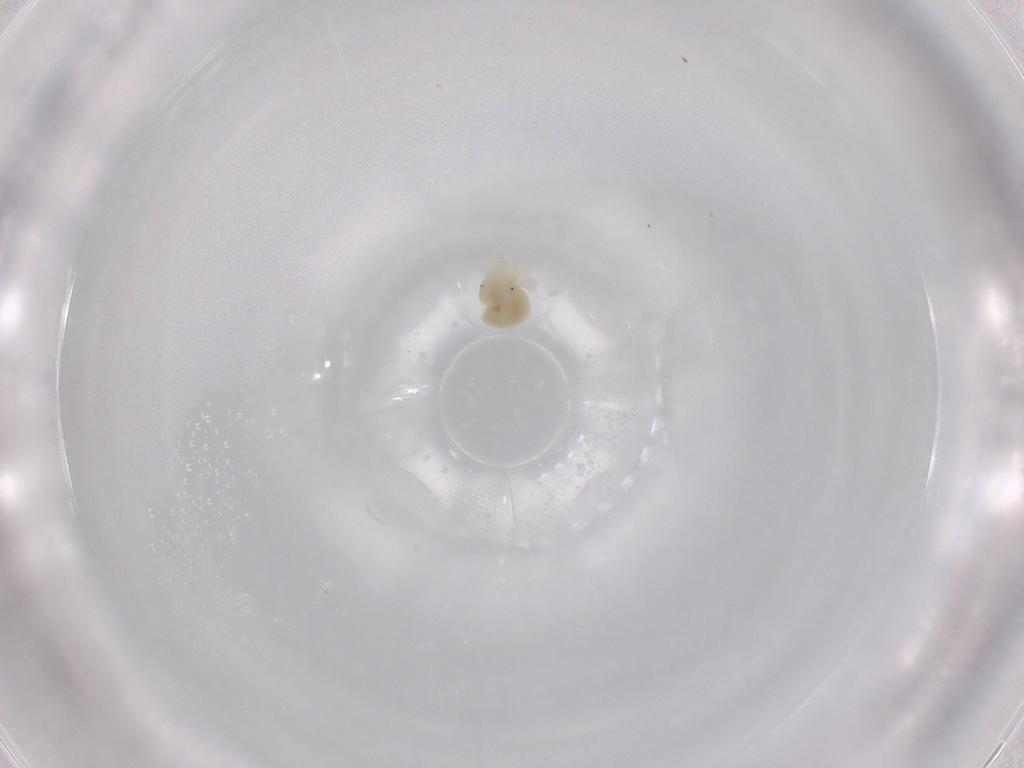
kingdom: Animalia
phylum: Arthropoda
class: Arachnida
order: Trombidiformes
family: Anystidae
